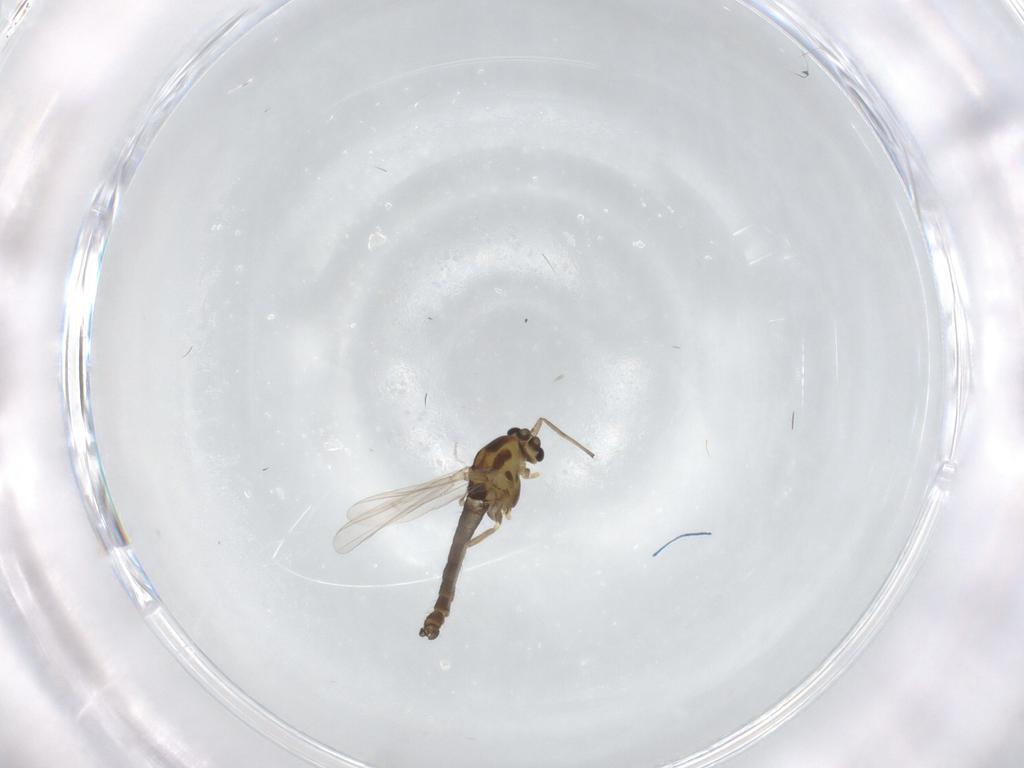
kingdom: Animalia
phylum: Arthropoda
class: Insecta
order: Diptera
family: Chironomidae
